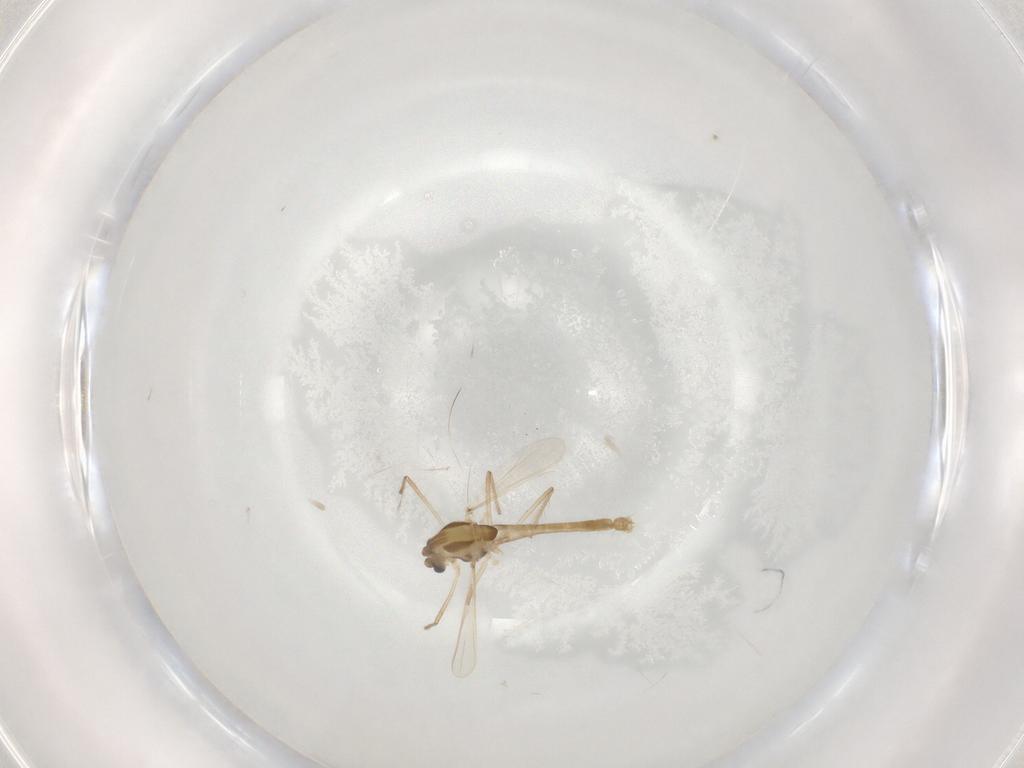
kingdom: Animalia
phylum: Arthropoda
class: Insecta
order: Diptera
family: Chironomidae
